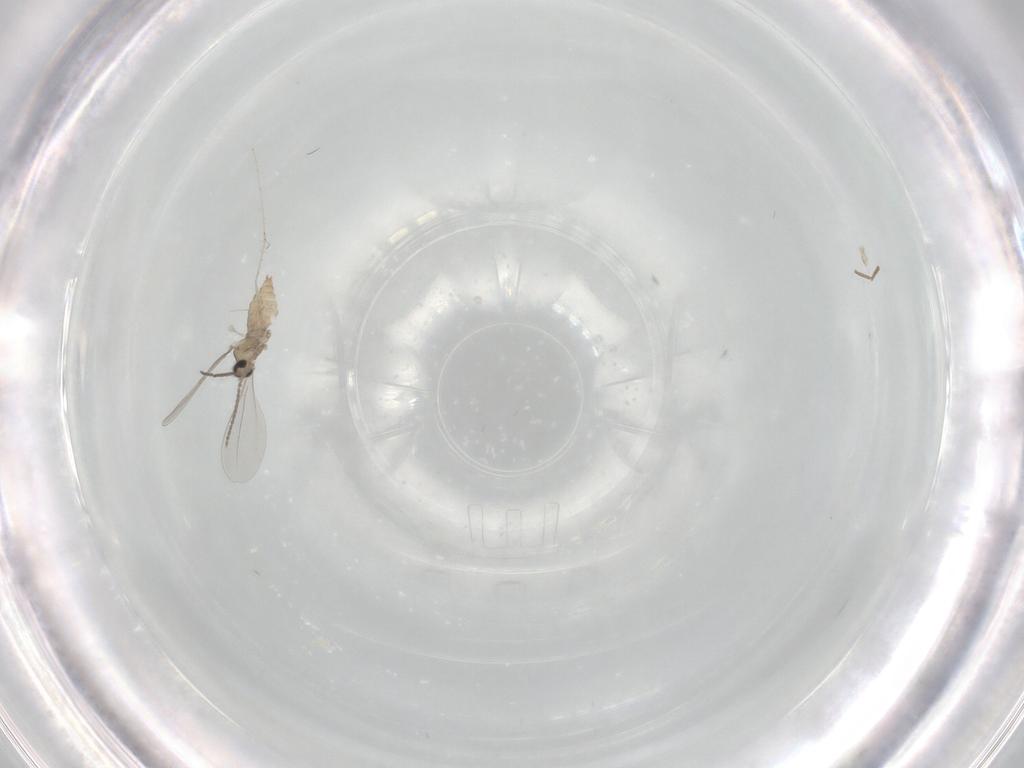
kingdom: Animalia
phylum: Arthropoda
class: Insecta
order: Diptera
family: Cecidomyiidae
